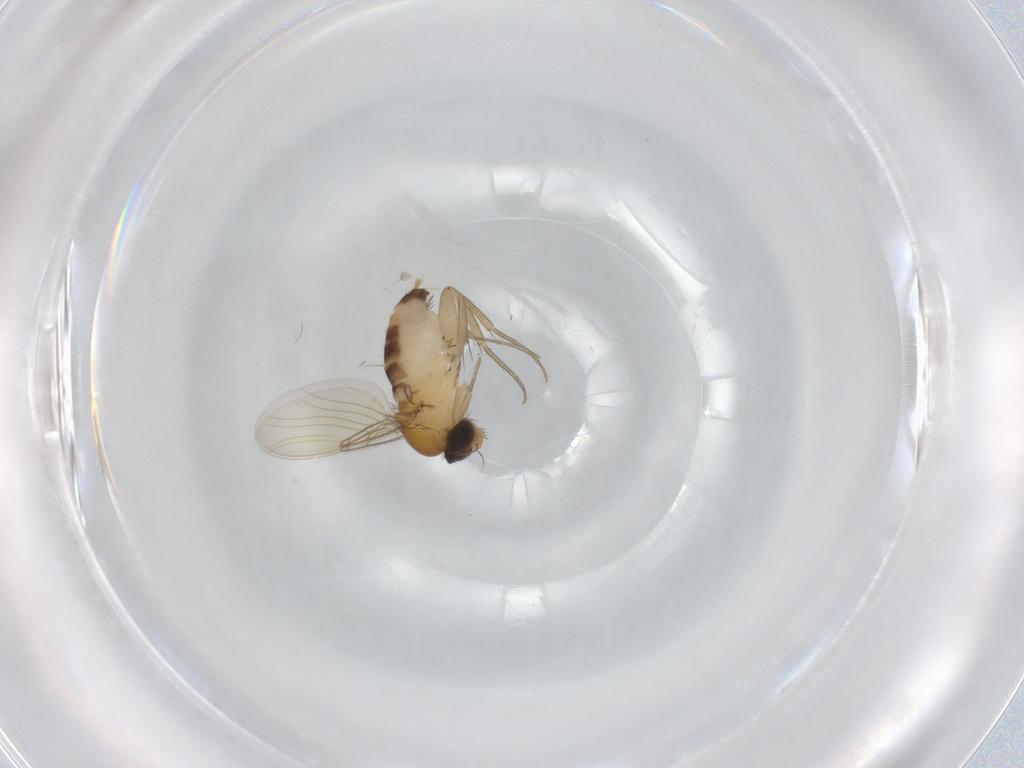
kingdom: Animalia
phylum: Arthropoda
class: Insecta
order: Diptera
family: Phoridae
